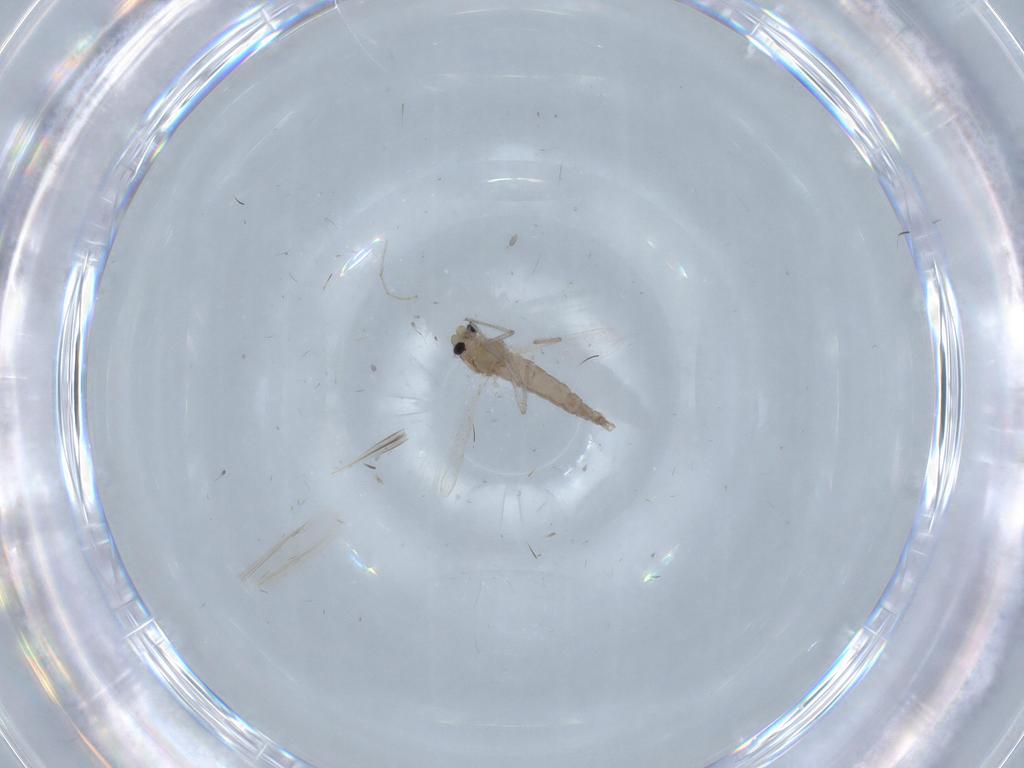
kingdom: Animalia
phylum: Arthropoda
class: Insecta
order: Diptera
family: Chironomidae
